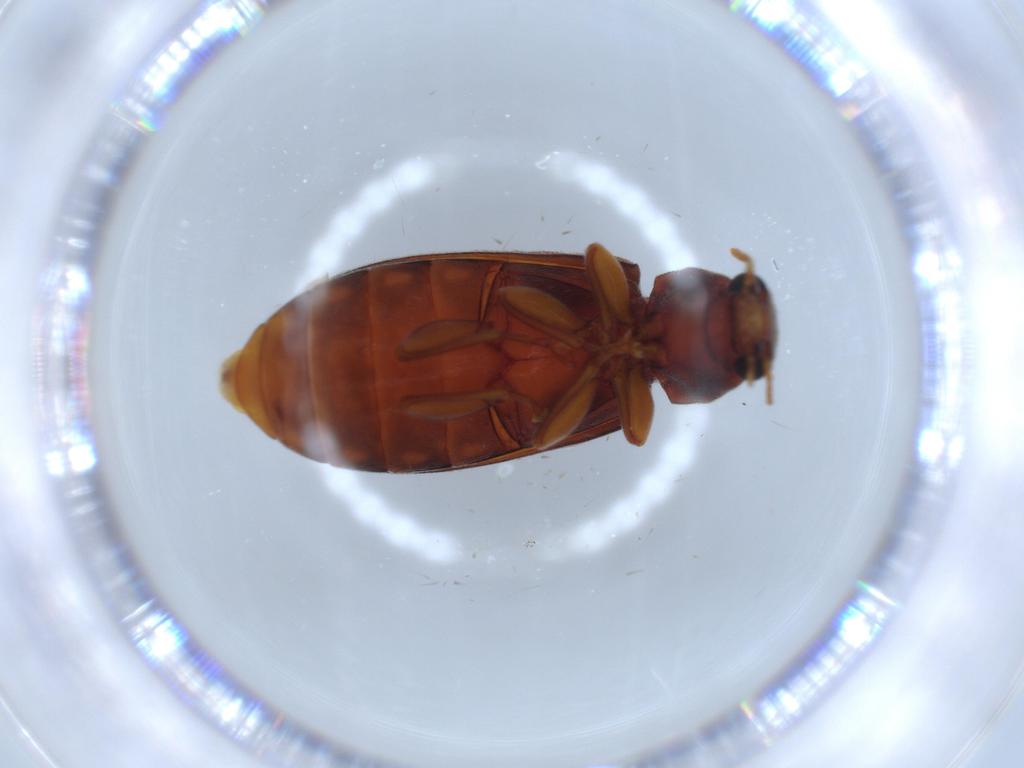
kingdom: Animalia
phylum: Arthropoda
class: Insecta
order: Coleoptera
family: Mycteridae
